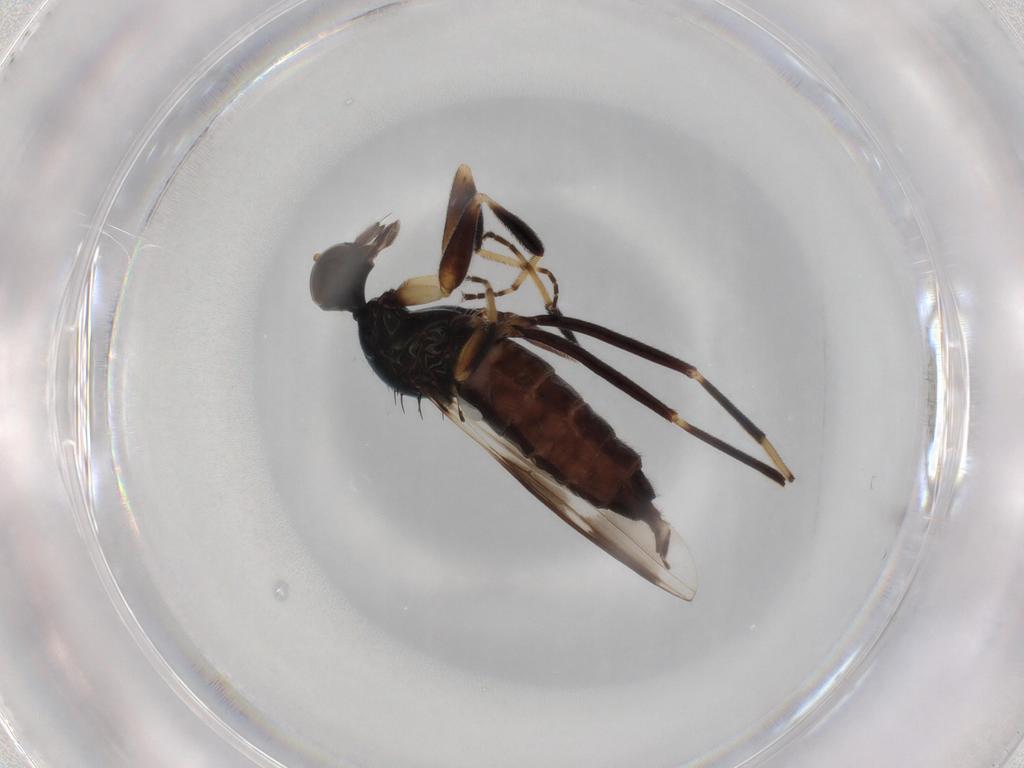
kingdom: Animalia
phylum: Arthropoda
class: Insecta
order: Diptera
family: Hybotidae
